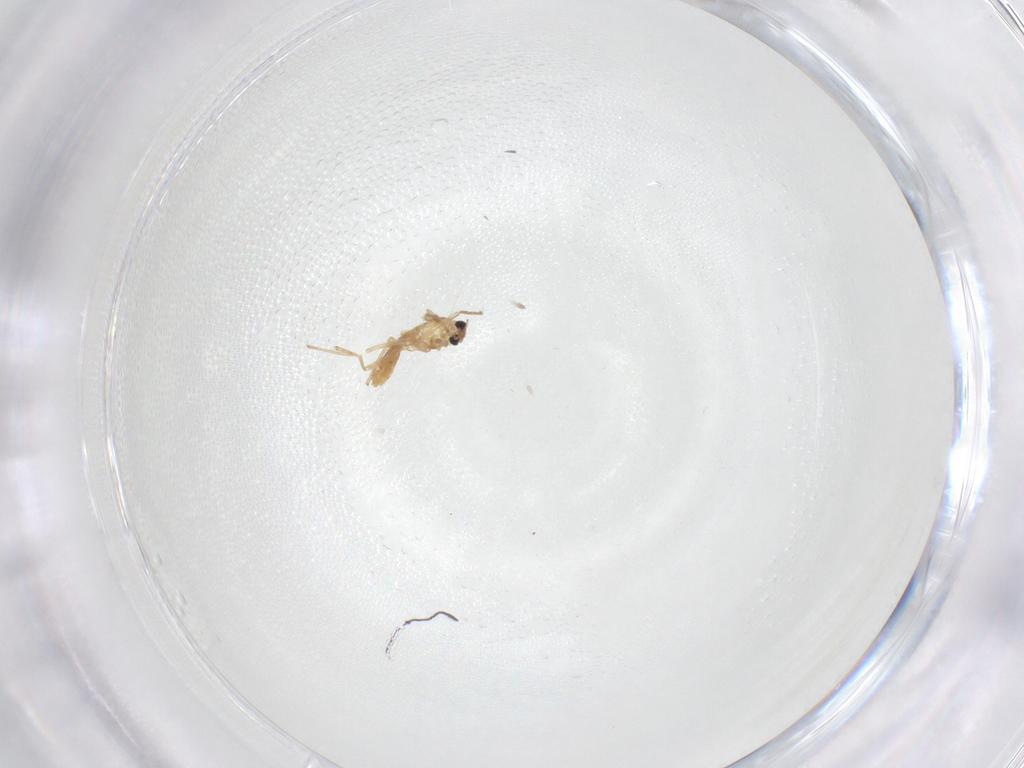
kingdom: Animalia
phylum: Arthropoda
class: Insecta
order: Diptera
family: Chironomidae
